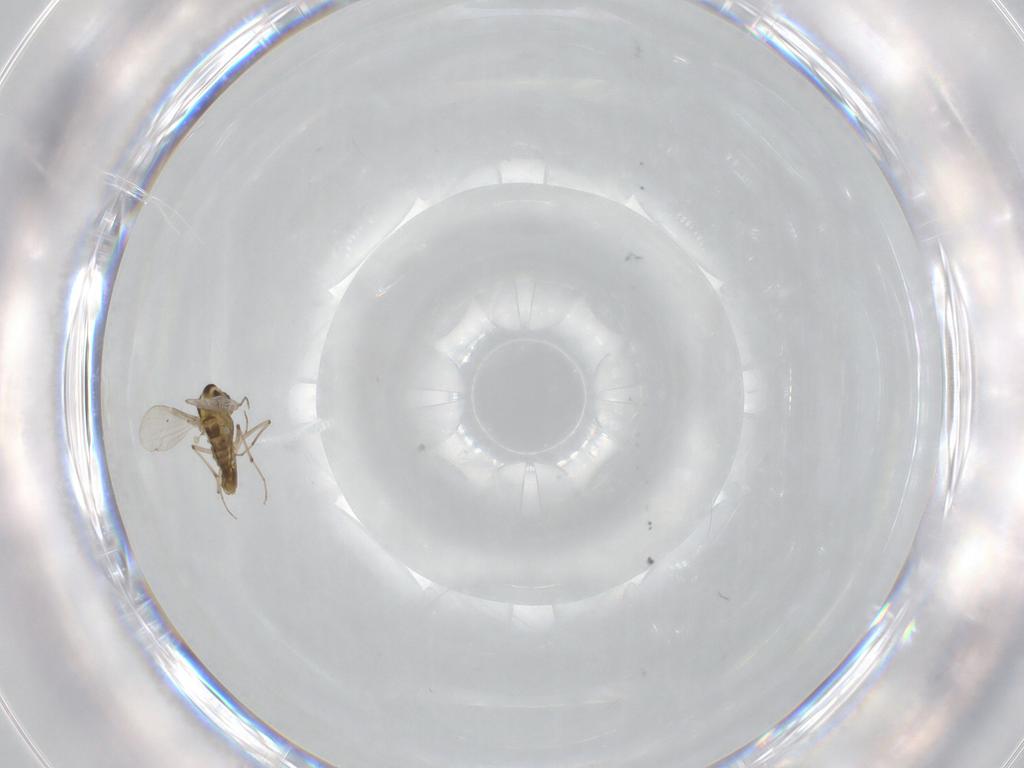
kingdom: Animalia
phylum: Arthropoda
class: Insecta
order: Diptera
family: Chironomidae
